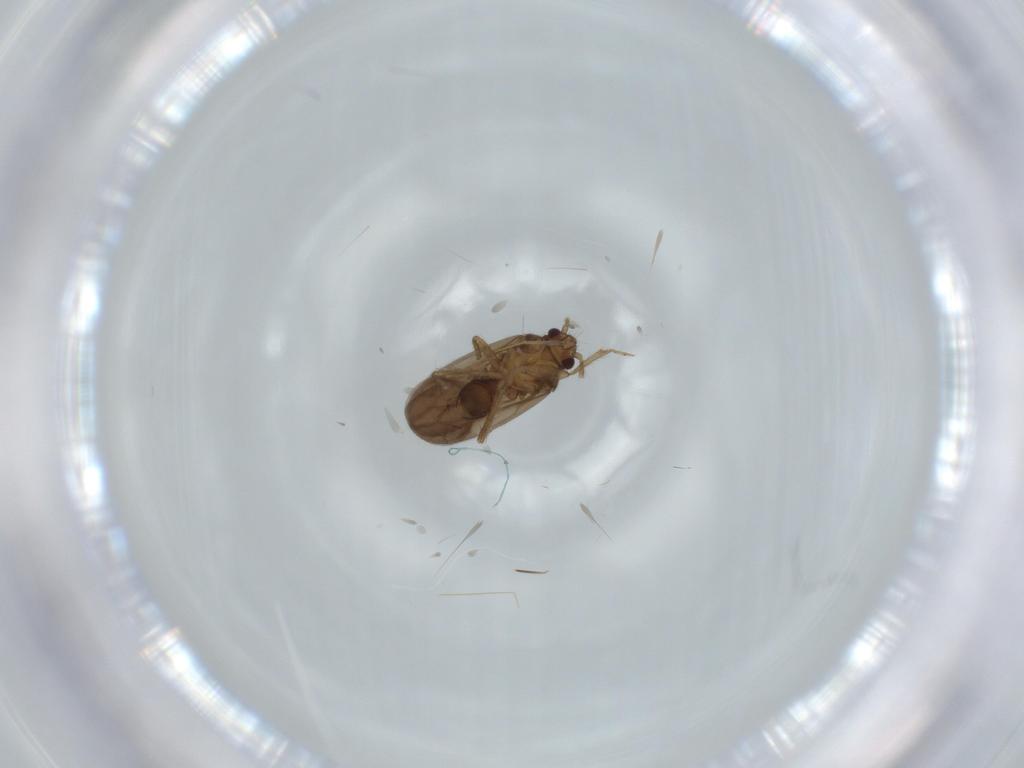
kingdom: Animalia
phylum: Arthropoda
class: Insecta
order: Hemiptera
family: Ceratocombidae
